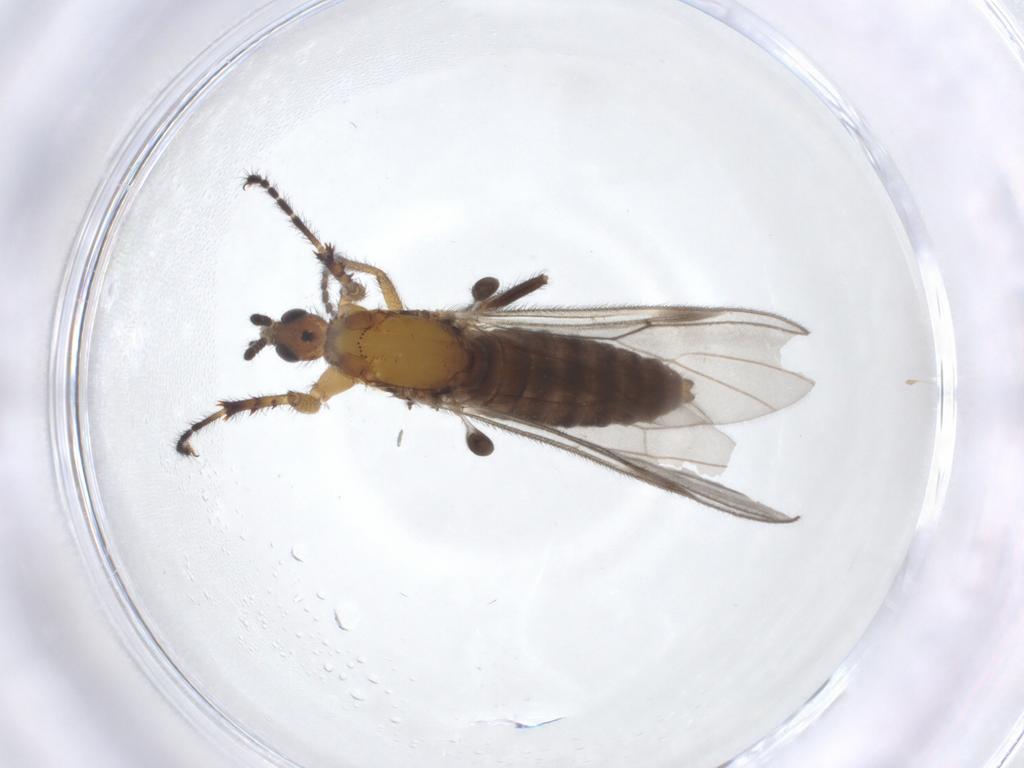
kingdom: Animalia
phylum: Arthropoda
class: Insecta
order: Diptera
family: Bibionidae
